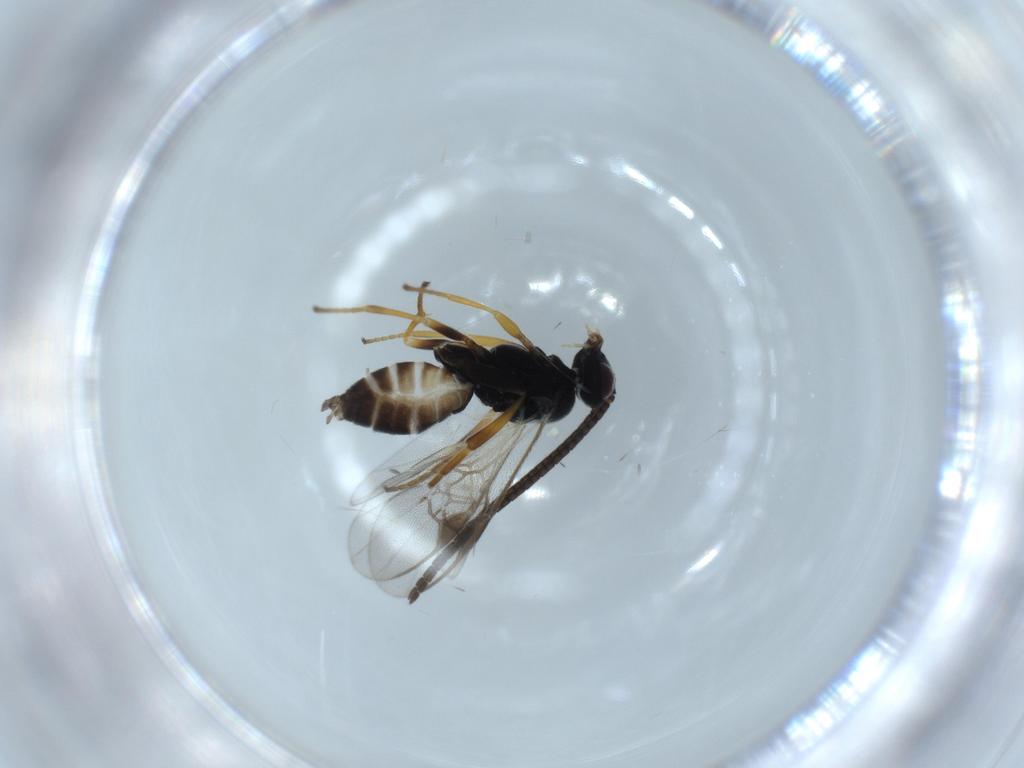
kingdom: Animalia
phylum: Arthropoda
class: Insecta
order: Hymenoptera
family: Braconidae
